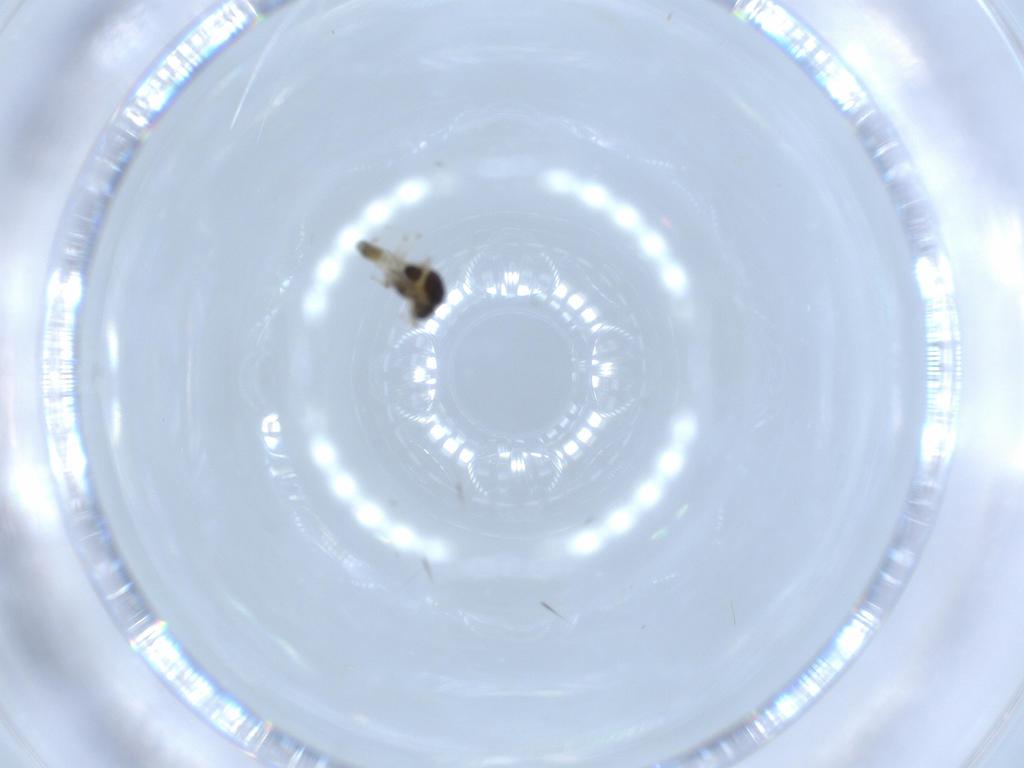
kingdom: Animalia
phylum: Arthropoda
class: Insecta
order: Diptera
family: Chironomidae
